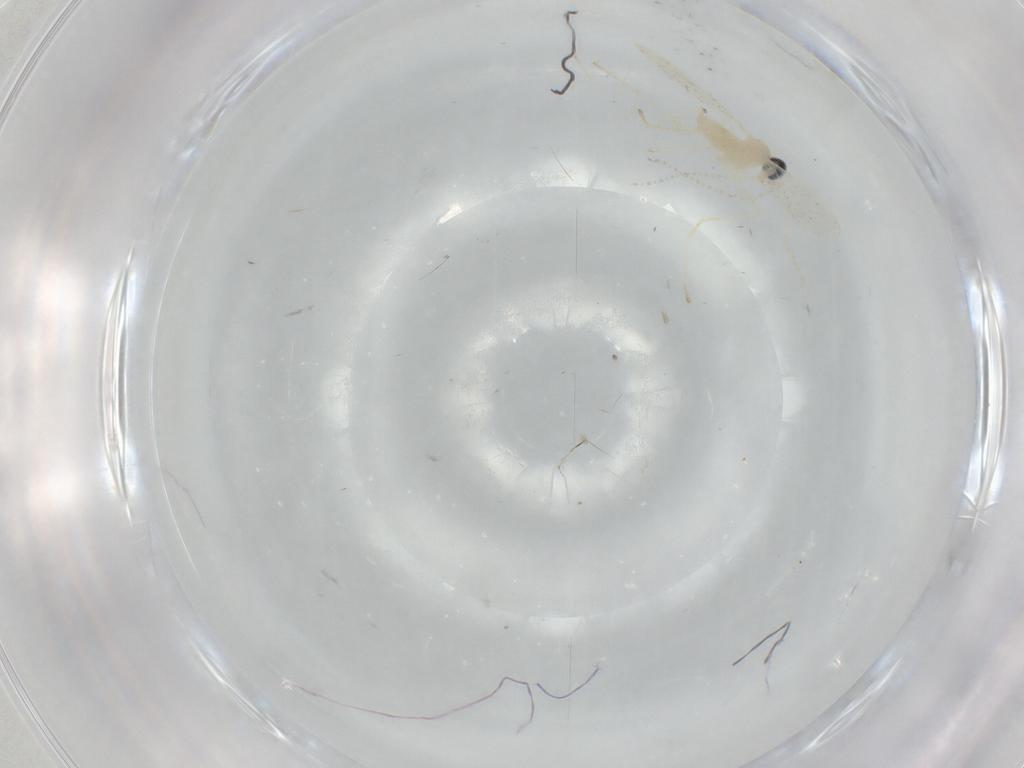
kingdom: Animalia
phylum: Arthropoda
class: Insecta
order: Diptera
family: Cecidomyiidae
